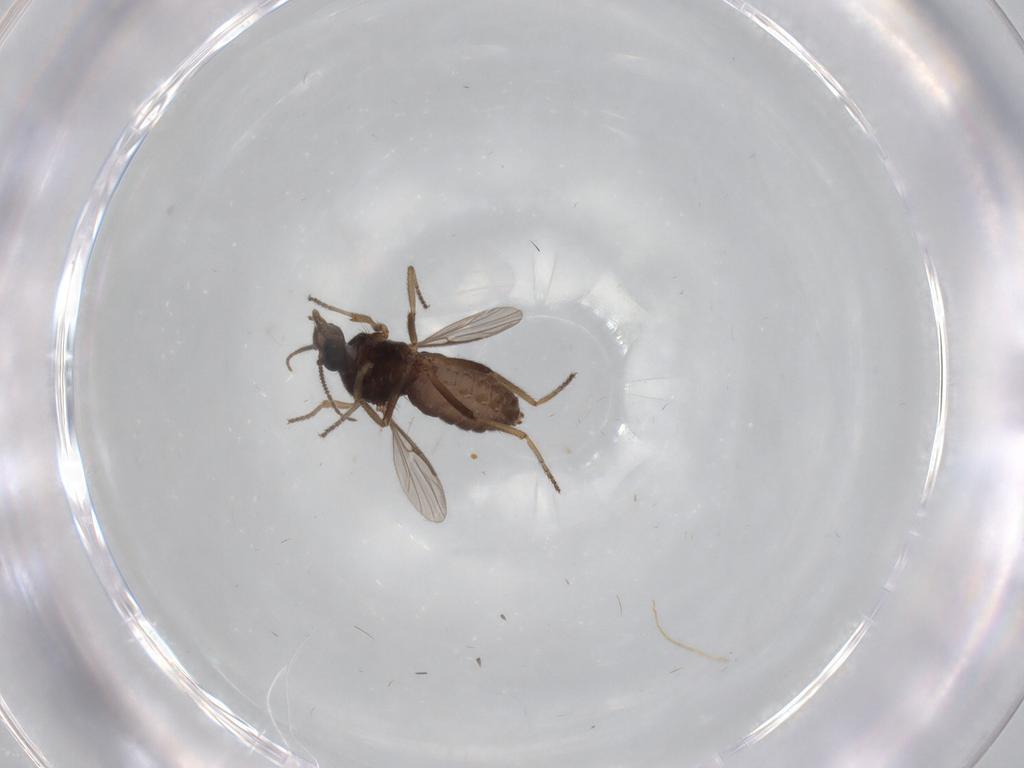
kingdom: Animalia
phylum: Arthropoda
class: Insecta
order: Diptera
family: Ceratopogonidae
